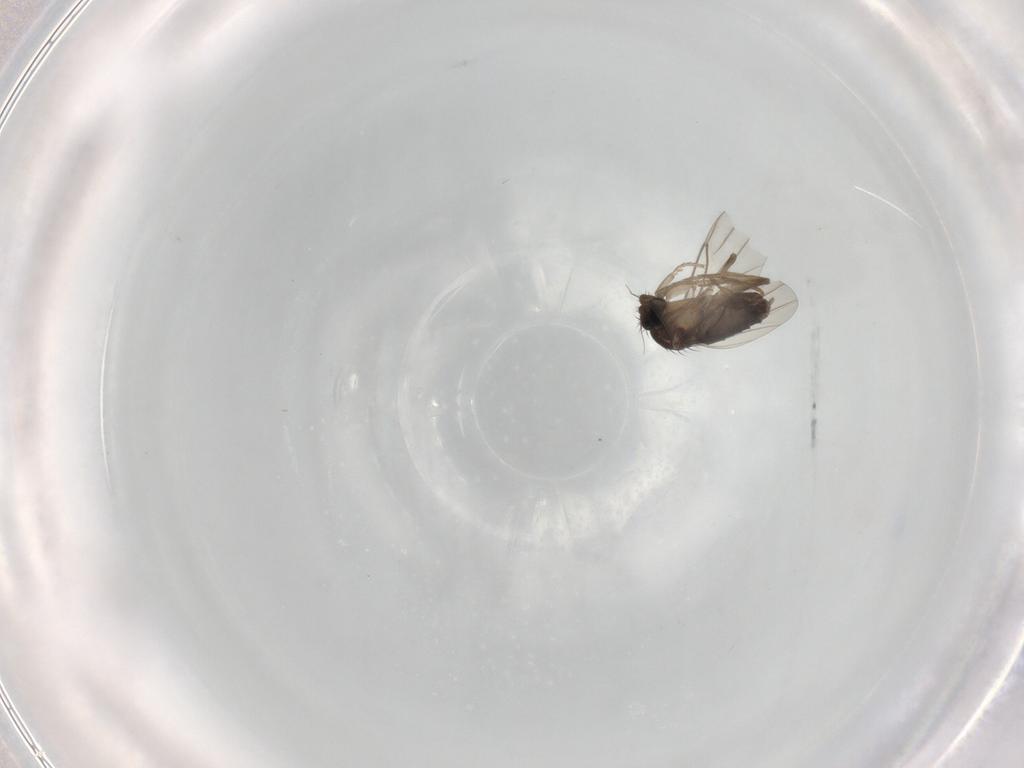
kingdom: Animalia
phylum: Arthropoda
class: Insecta
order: Diptera
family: Phoridae
